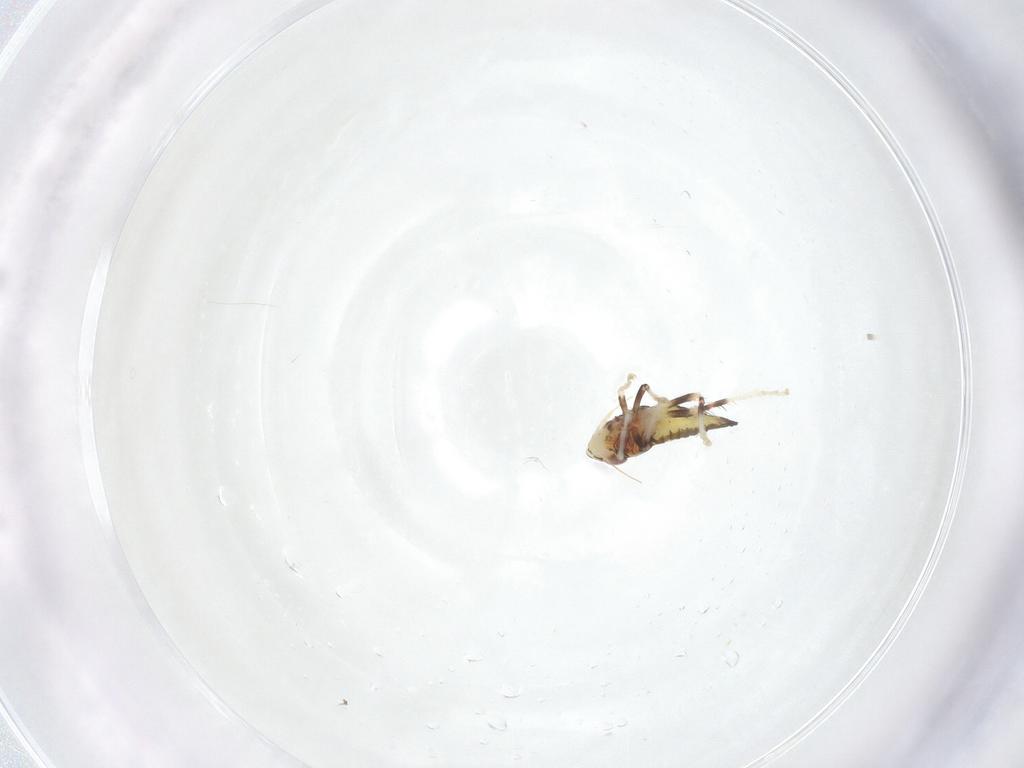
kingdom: Animalia
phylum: Arthropoda
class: Insecta
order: Hemiptera
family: Cicadellidae
